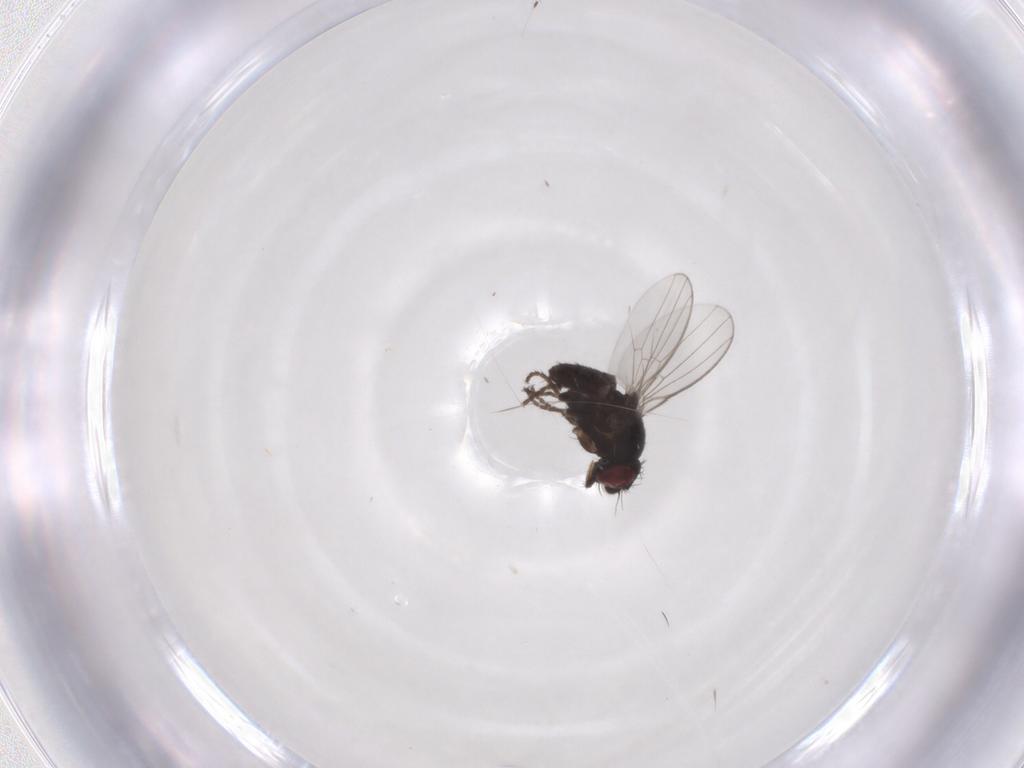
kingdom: Animalia
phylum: Arthropoda
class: Insecta
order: Diptera
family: Milichiidae
